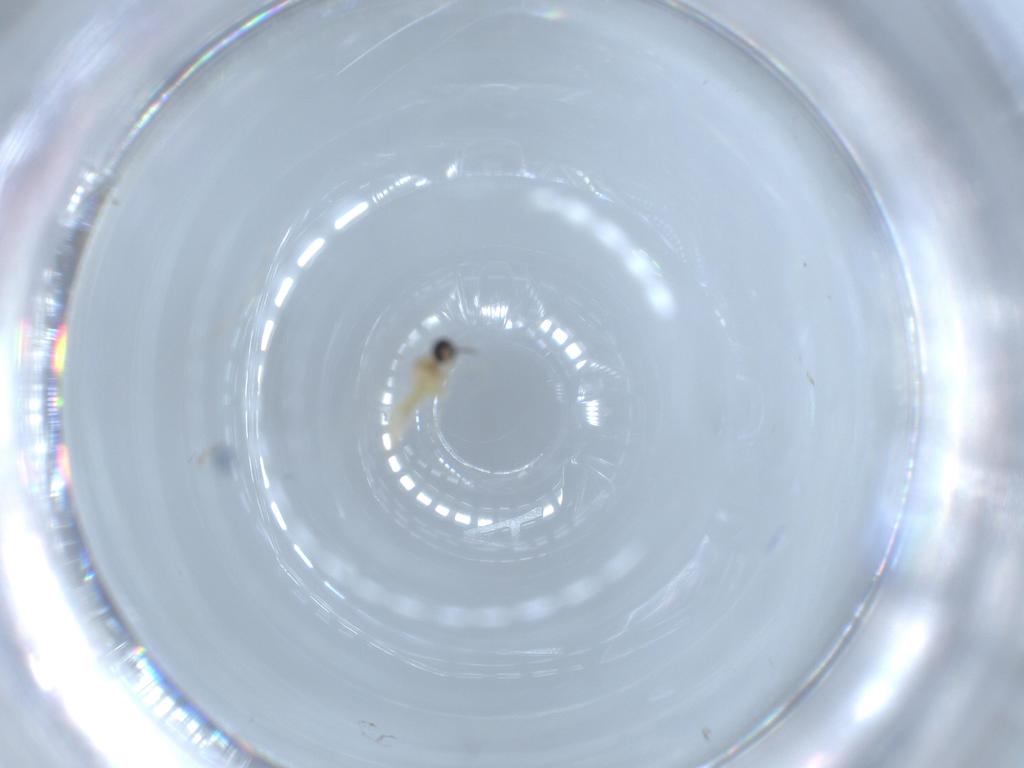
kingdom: Animalia
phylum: Arthropoda
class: Insecta
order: Diptera
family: Cecidomyiidae
